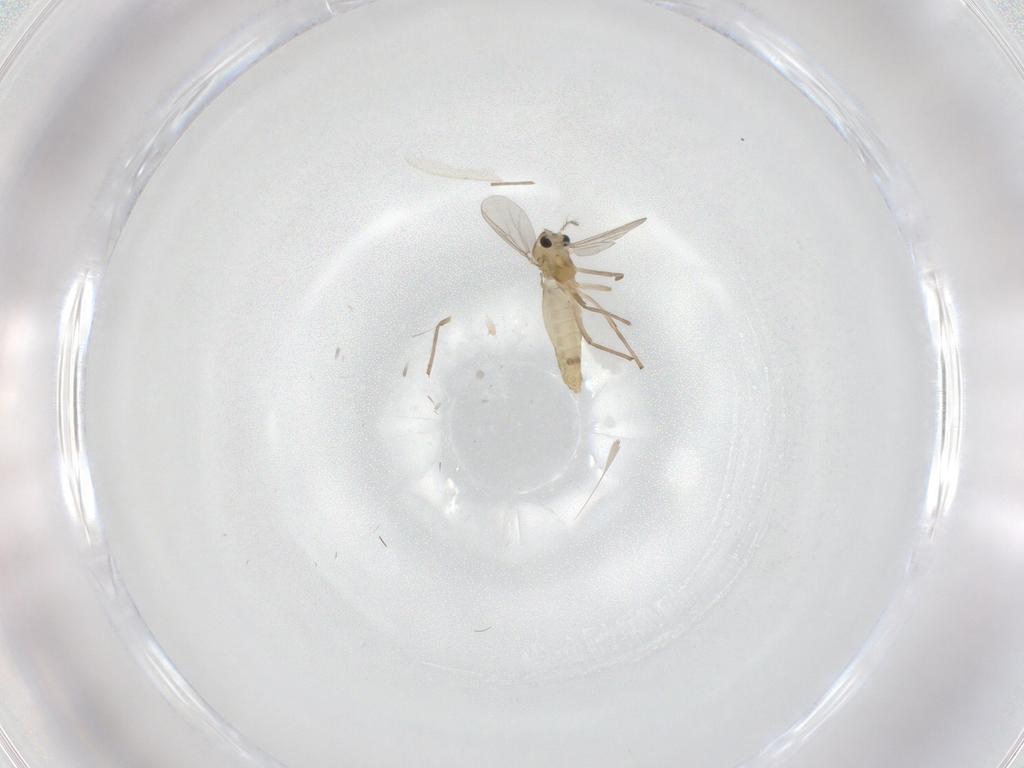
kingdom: Animalia
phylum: Arthropoda
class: Insecta
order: Diptera
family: Chironomidae
